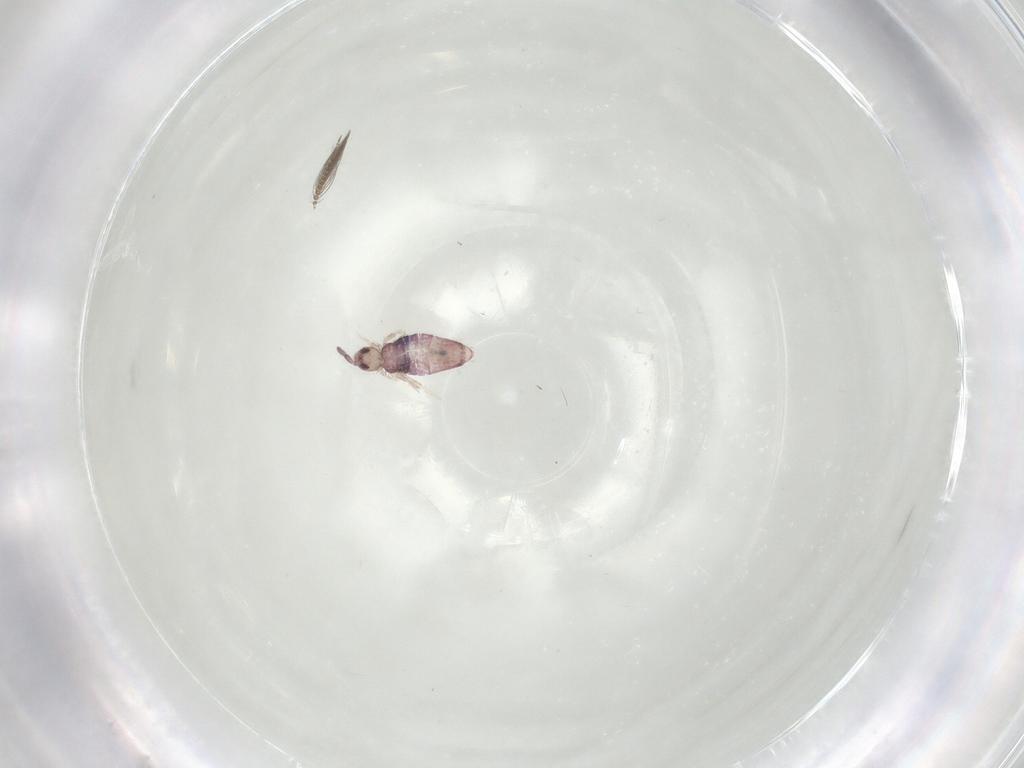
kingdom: Animalia
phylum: Arthropoda
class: Collembola
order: Entomobryomorpha
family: Entomobryidae
